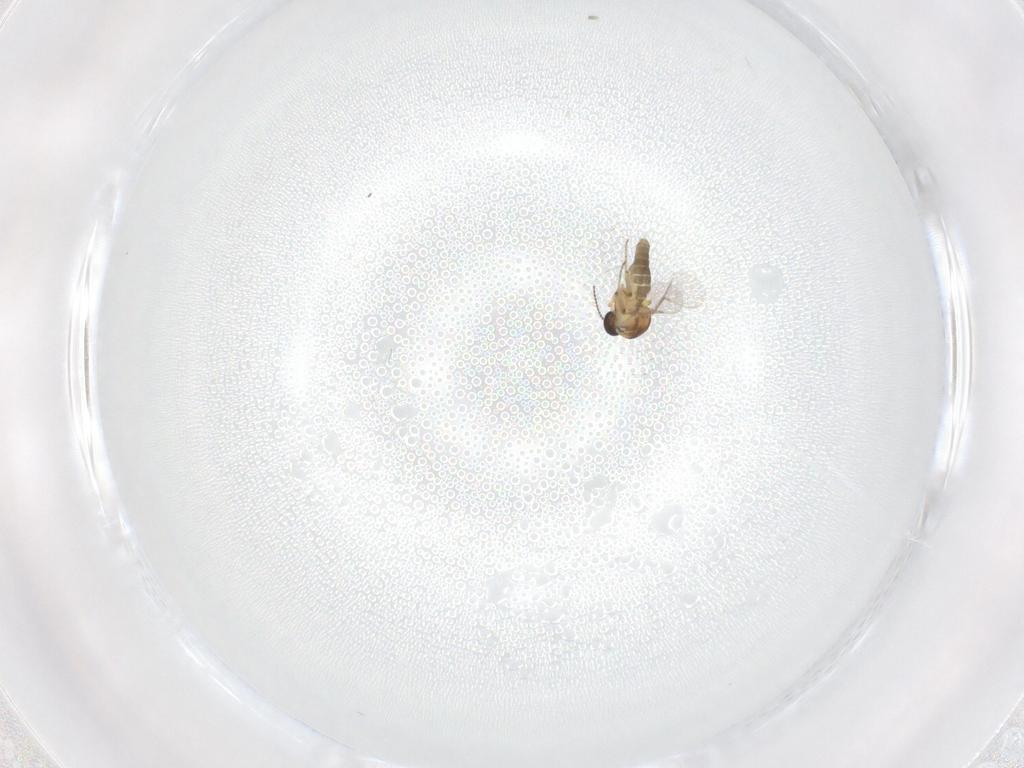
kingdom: Animalia
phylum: Arthropoda
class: Insecta
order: Diptera
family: Ceratopogonidae
